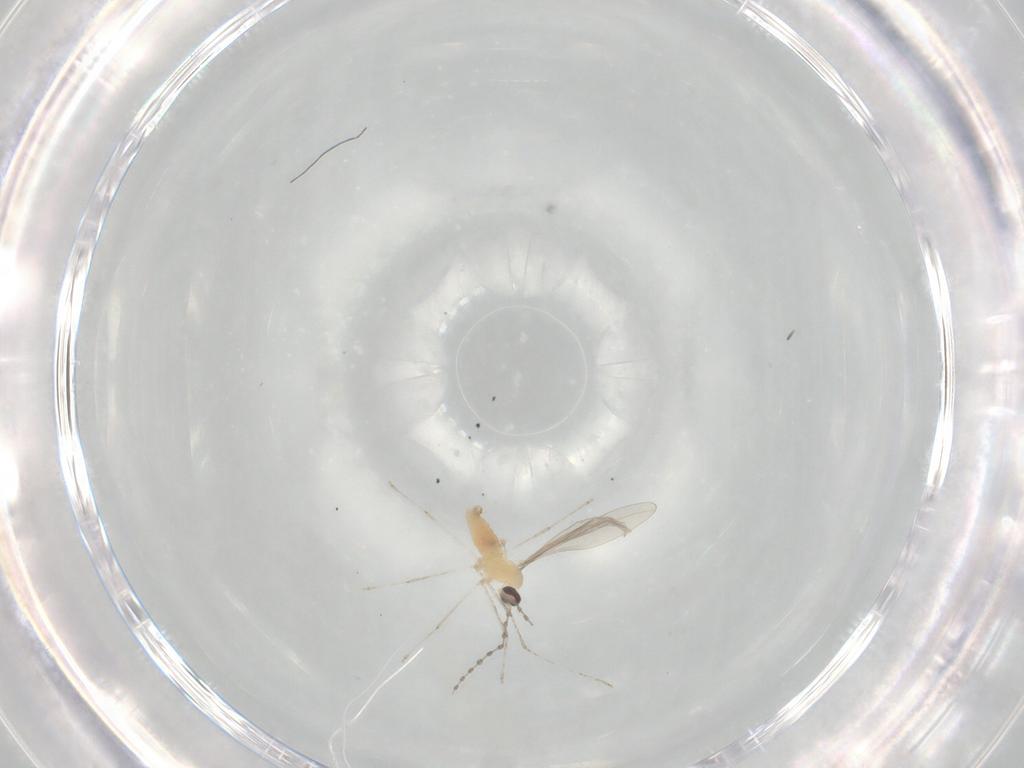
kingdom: Animalia
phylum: Arthropoda
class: Insecta
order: Diptera
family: Cecidomyiidae
